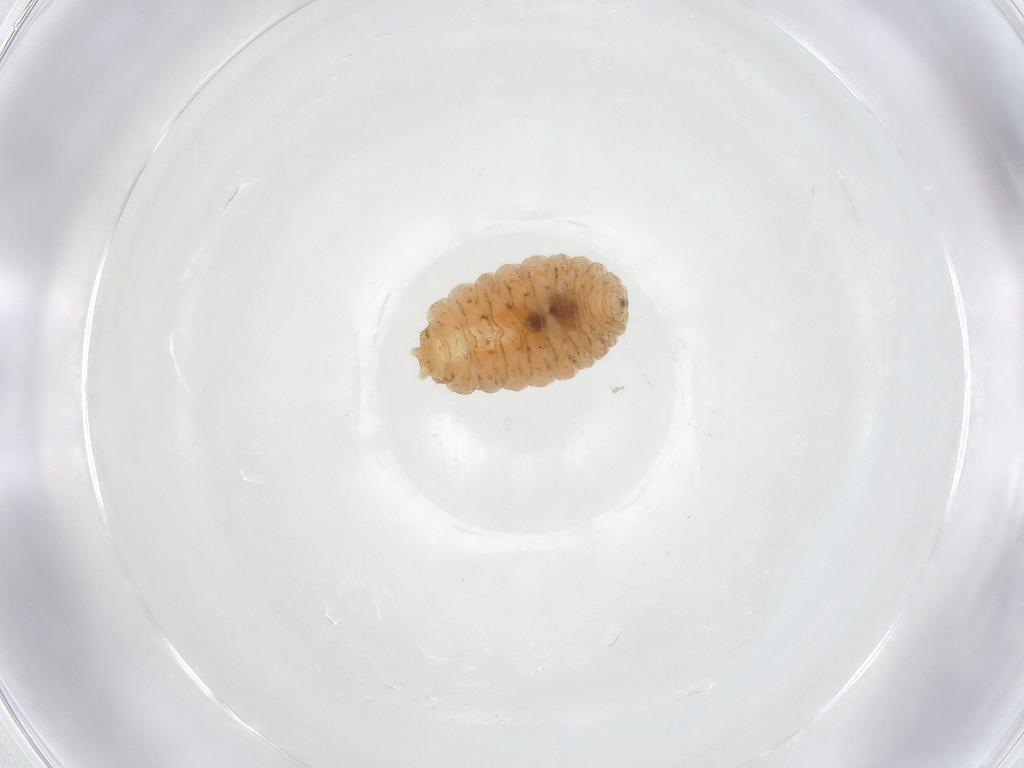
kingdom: Animalia
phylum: Arthropoda
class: Insecta
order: Diptera
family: Cecidomyiidae
